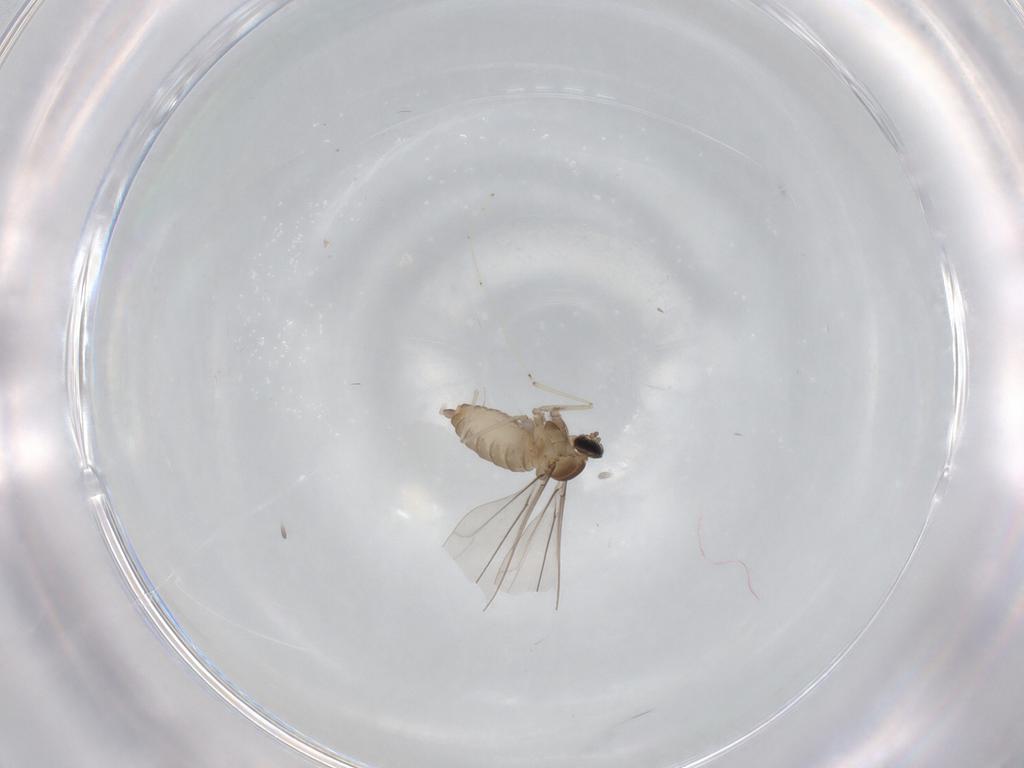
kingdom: Animalia
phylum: Arthropoda
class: Insecta
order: Diptera
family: Cecidomyiidae
